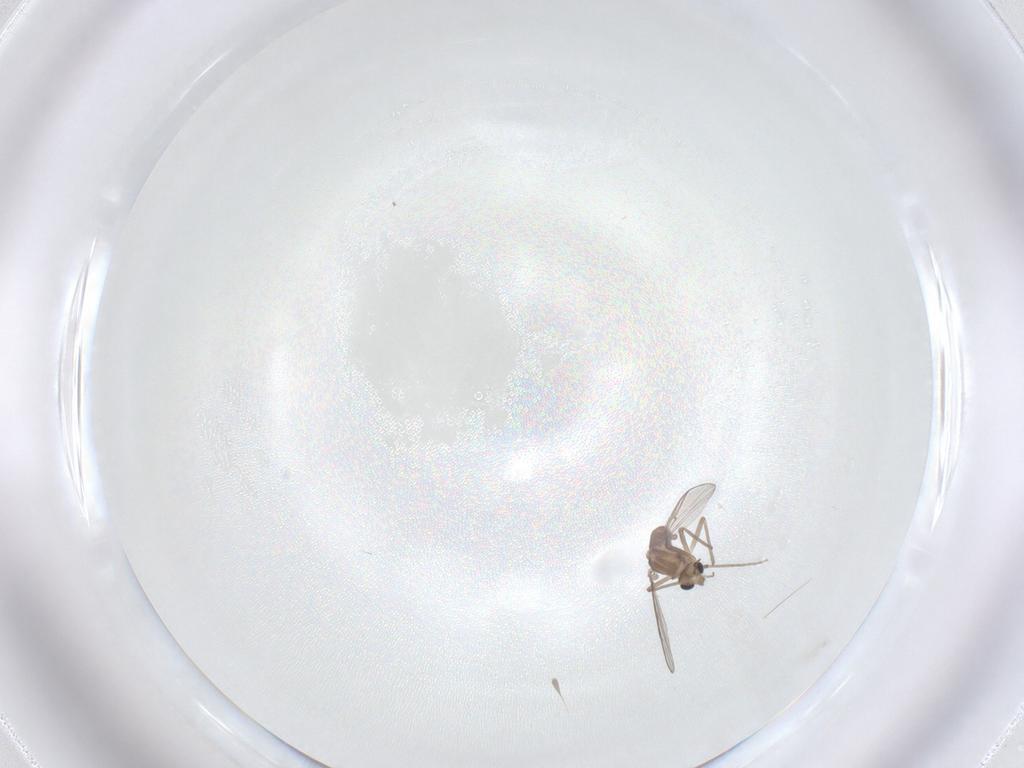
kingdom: Animalia
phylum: Arthropoda
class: Insecta
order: Diptera
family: Chironomidae
